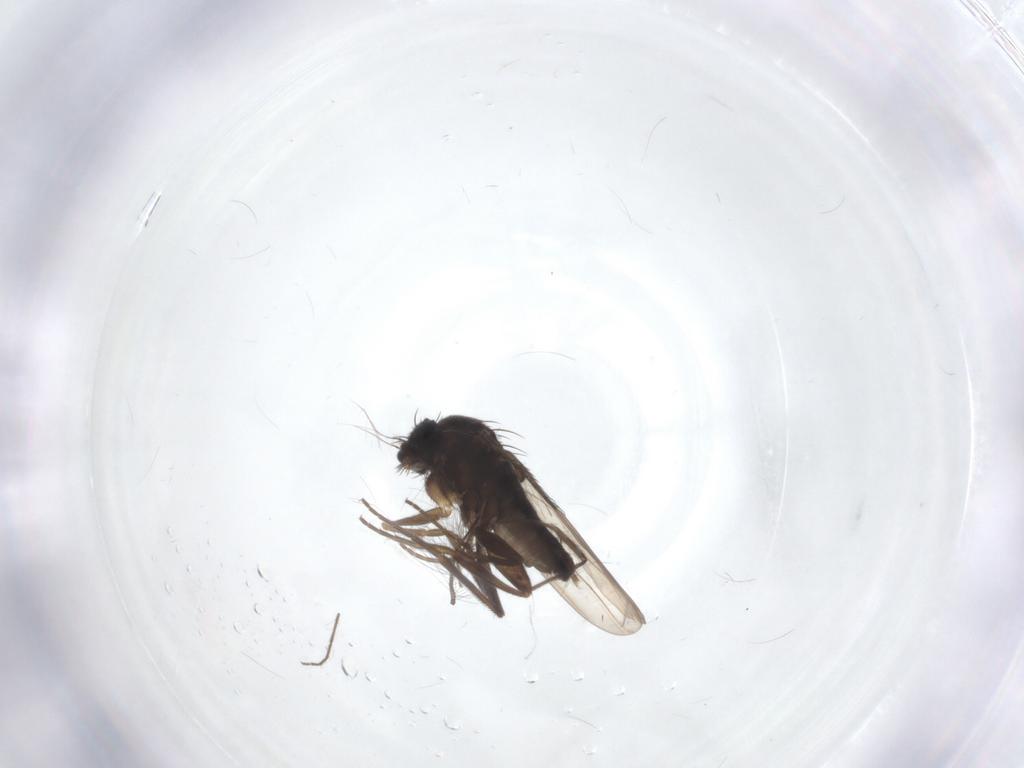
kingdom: Animalia
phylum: Arthropoda
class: Insecta
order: Diptera
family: Phoridae
